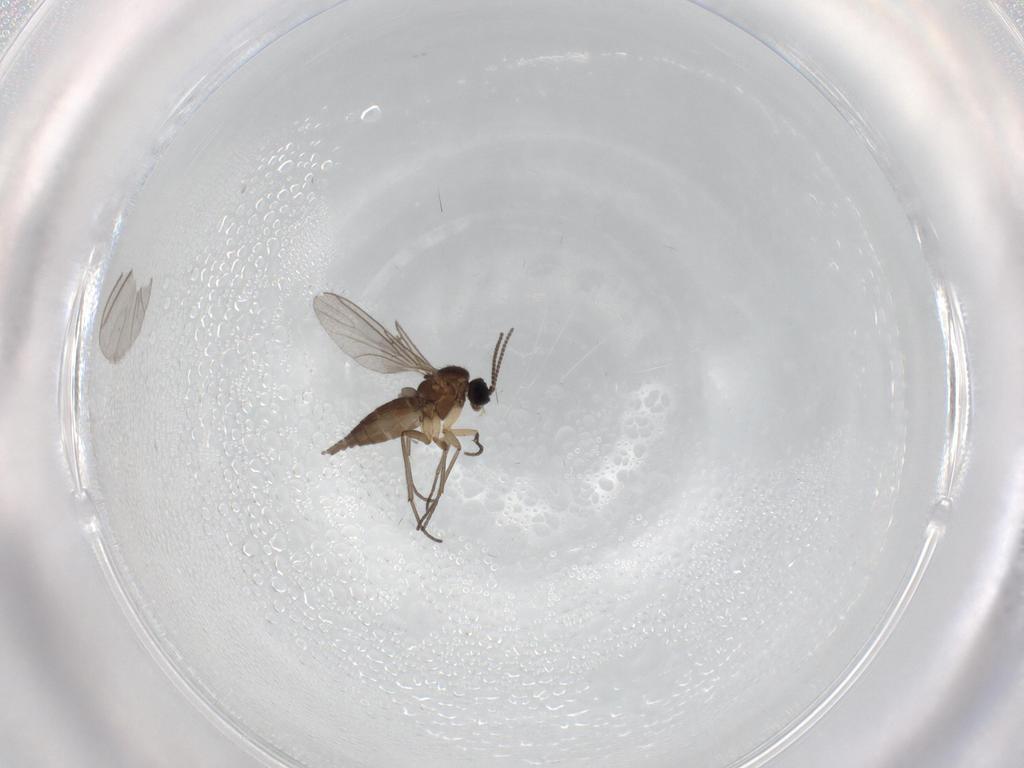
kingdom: Animalia
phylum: Arthropoda
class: Insecta
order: Diptera
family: Sciaridae
